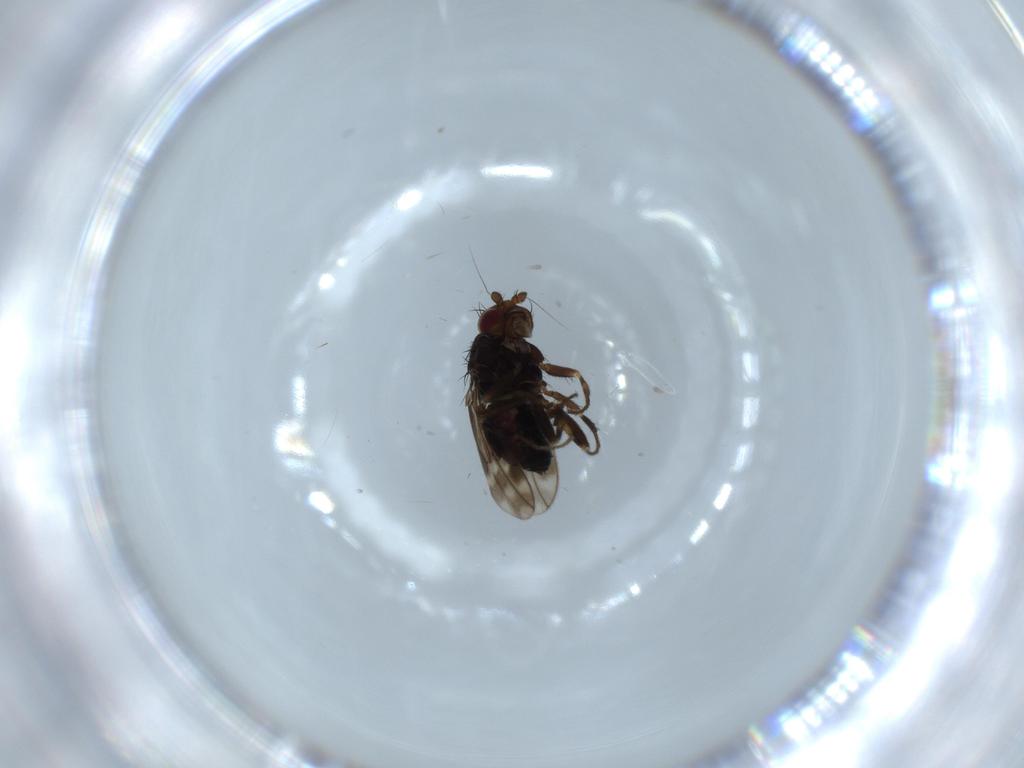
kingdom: Animalia
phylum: Arthropoda
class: Insecta
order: Diptera
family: Sphaeroceridae
